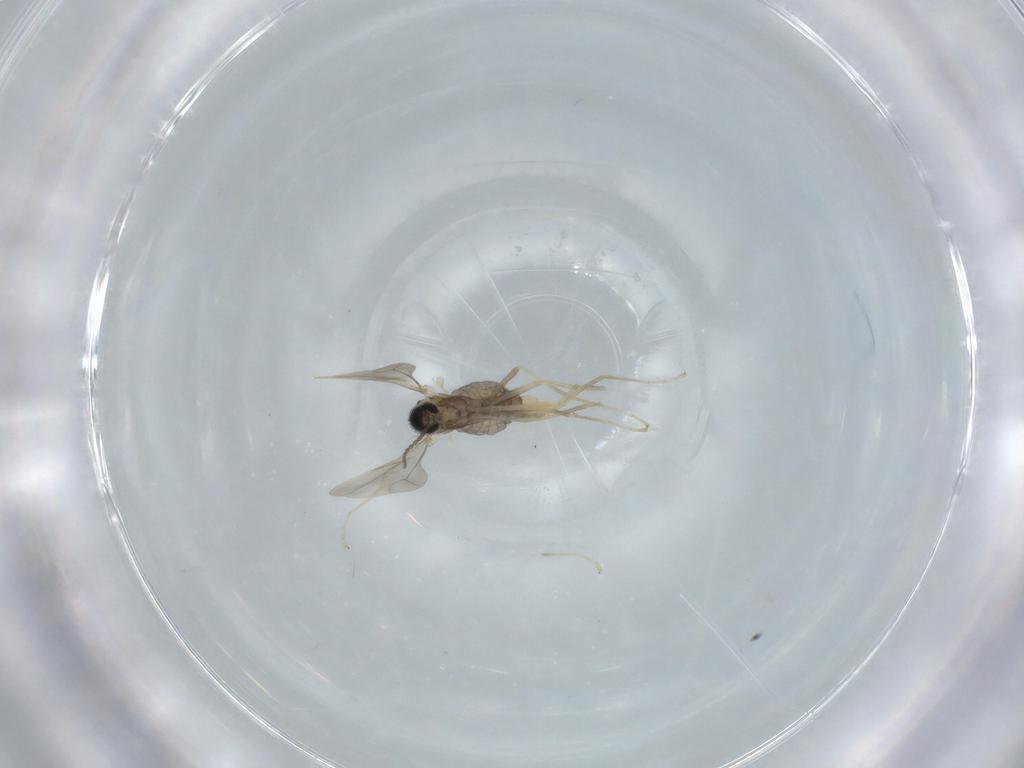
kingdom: Animalia
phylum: Arthropoda
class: Insecta
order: Diptera
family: Cecidomyiidae
